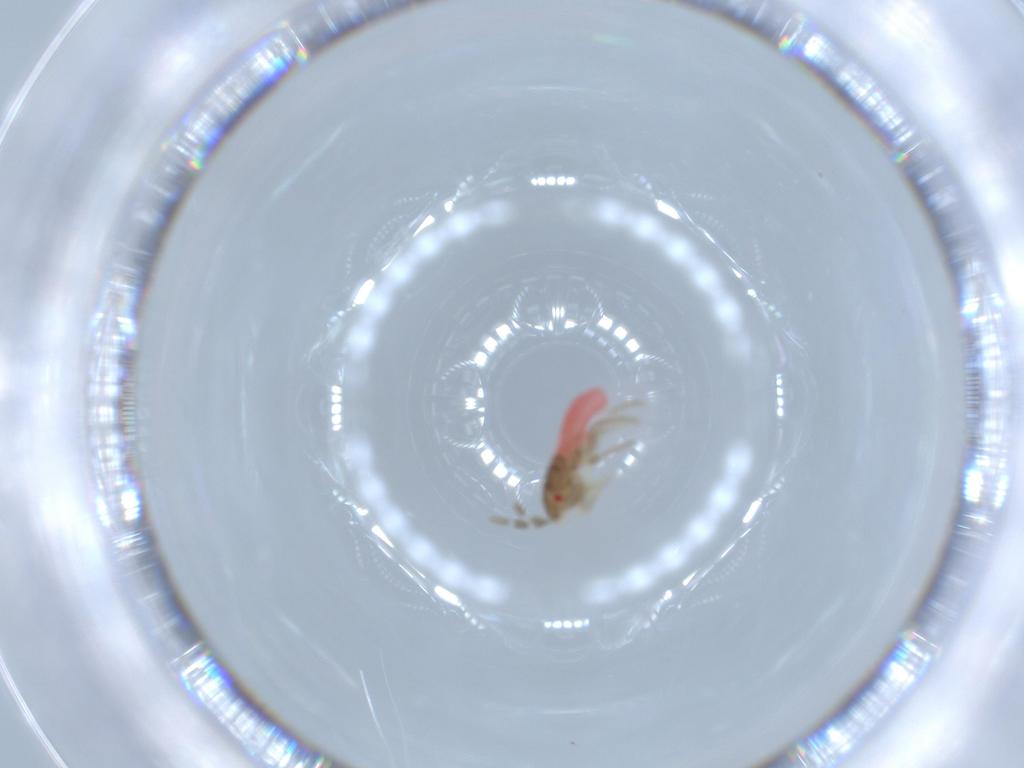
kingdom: Animalia
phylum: Arthropoda
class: Insecta
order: Hemiptera
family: Rhyparochromidae
